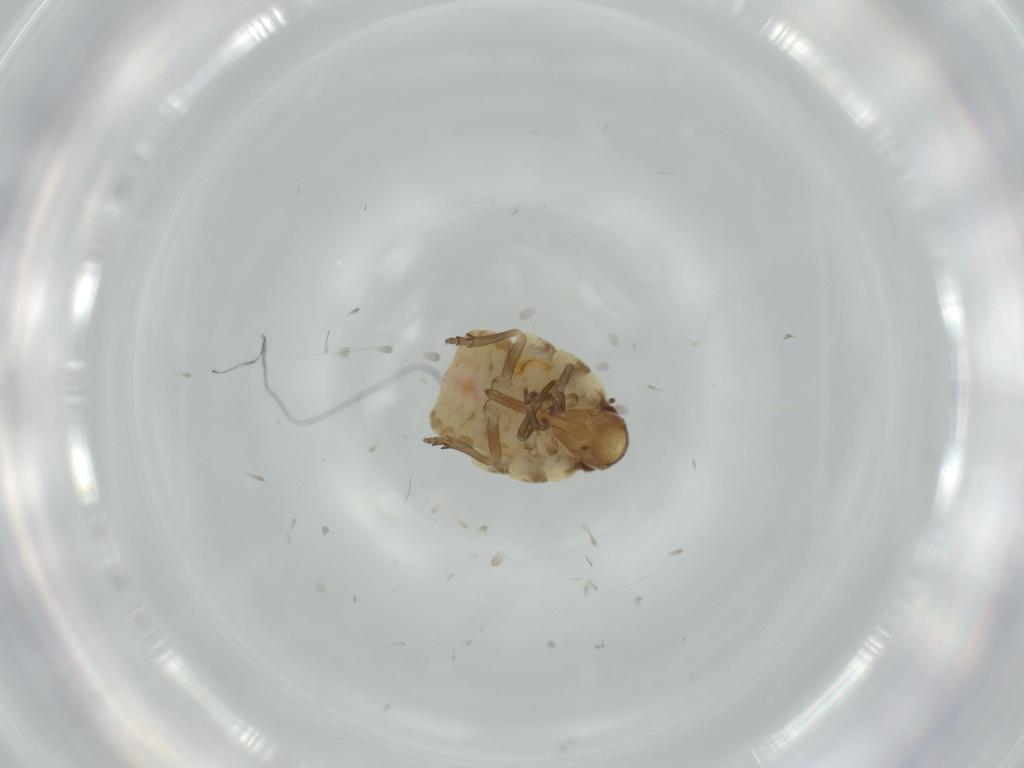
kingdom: Animalia
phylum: Arthropoda
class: Insecta
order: Hemiptera
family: Flatidae
